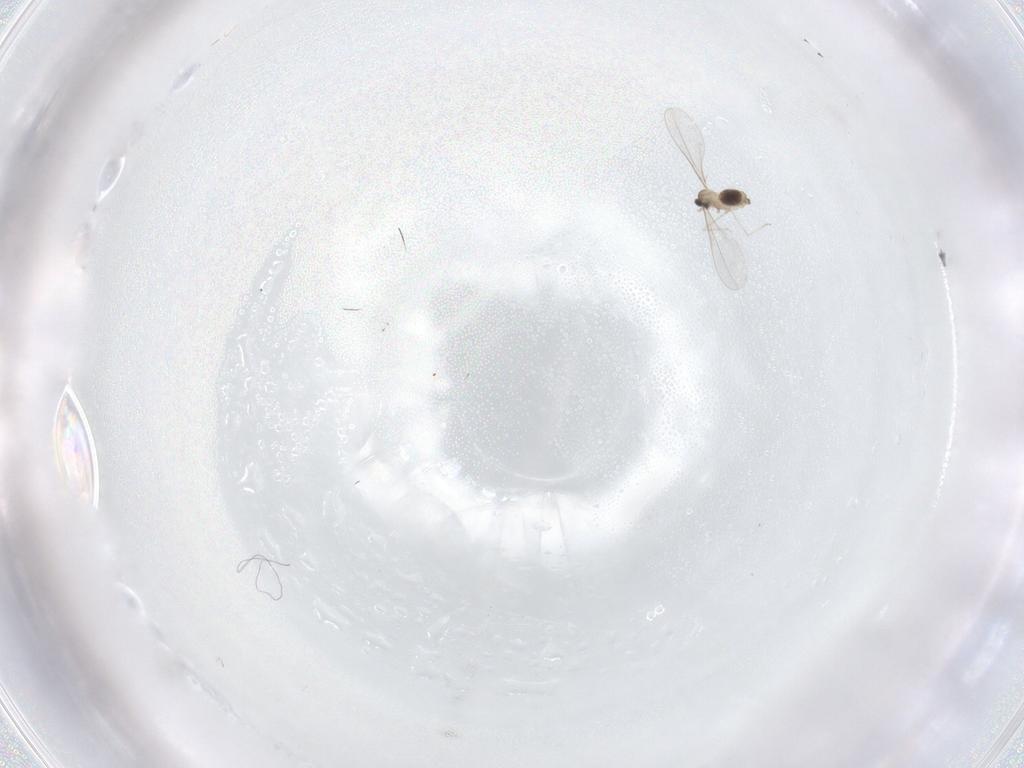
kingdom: Animalia
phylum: Arthropoda
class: Insecta
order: Diptera
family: Cecidomyiidae
